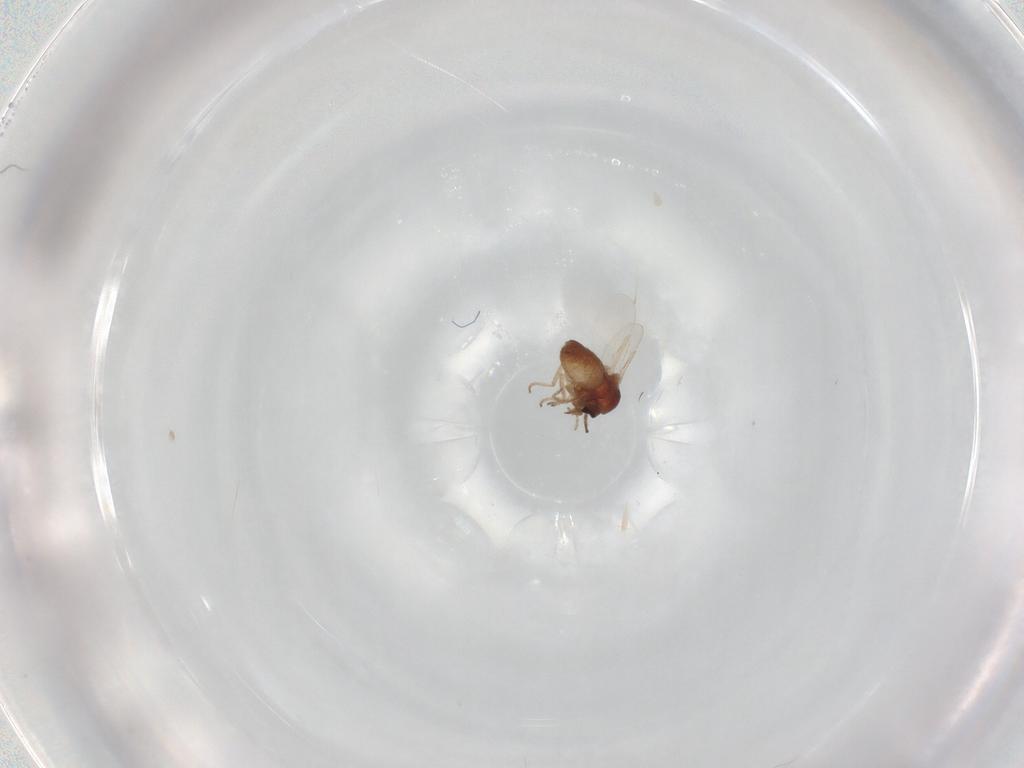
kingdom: Animalia
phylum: Arthropoda
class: Insecta
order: Diptera
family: Ceratopogonidae
